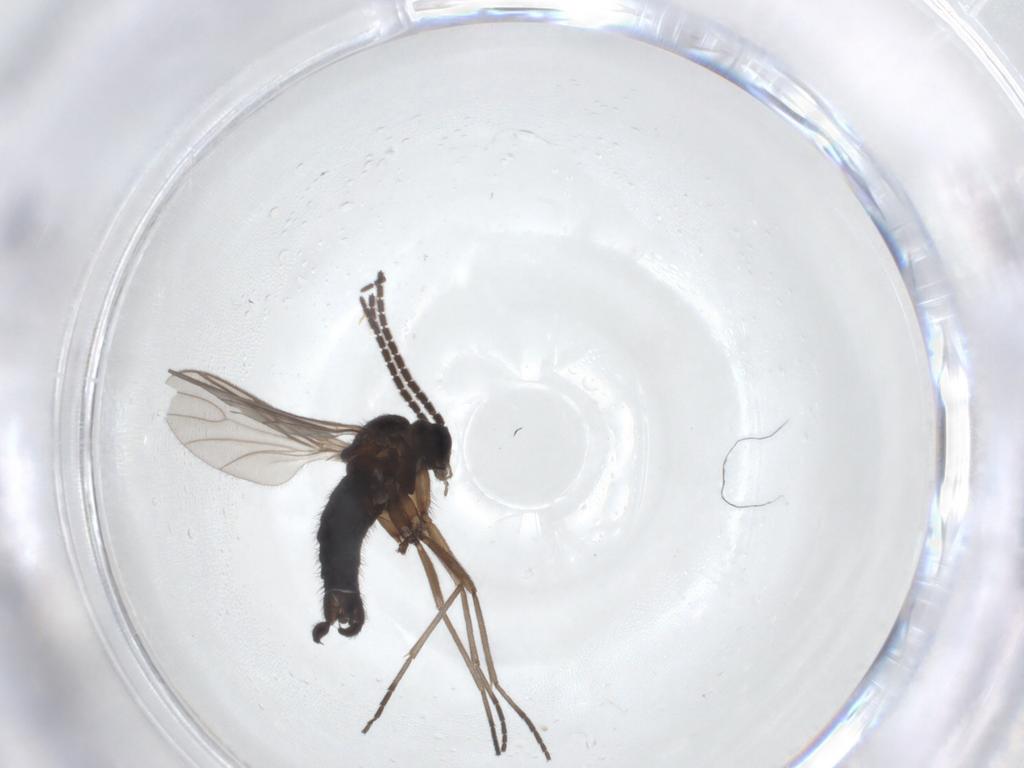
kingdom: Animalia
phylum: Arthropoda
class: Insecta
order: Diptera
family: Sciaridae
